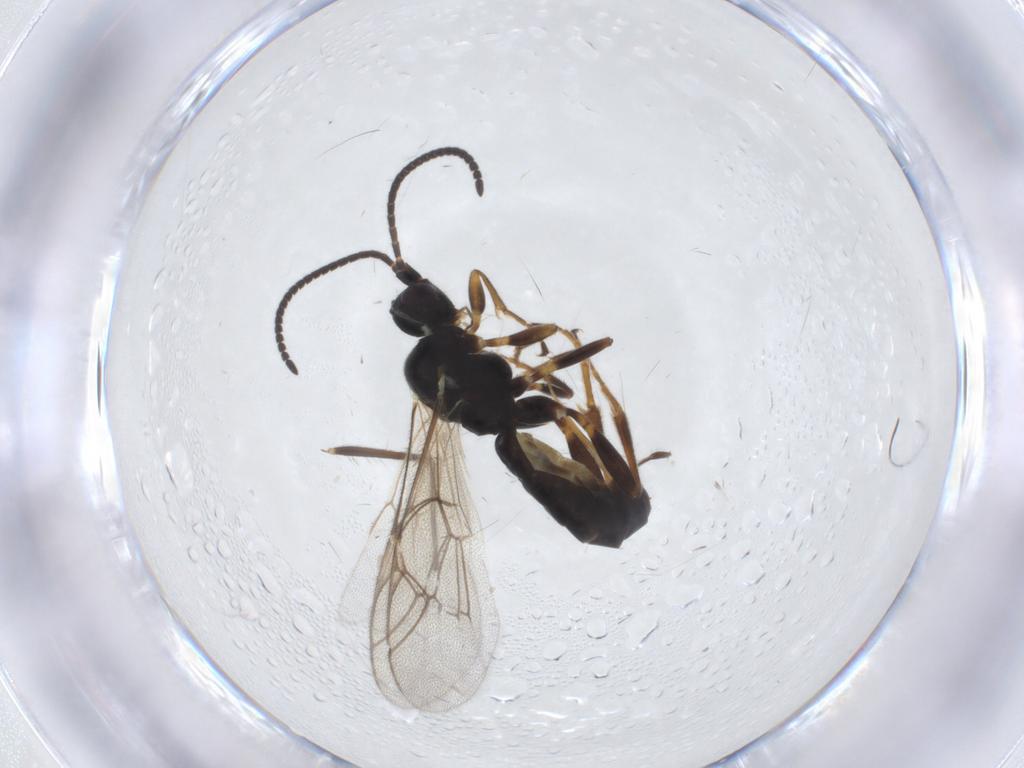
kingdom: Animalia
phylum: Arthropoda
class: Insecta
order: Hymenoptera
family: Ichneumonidae
